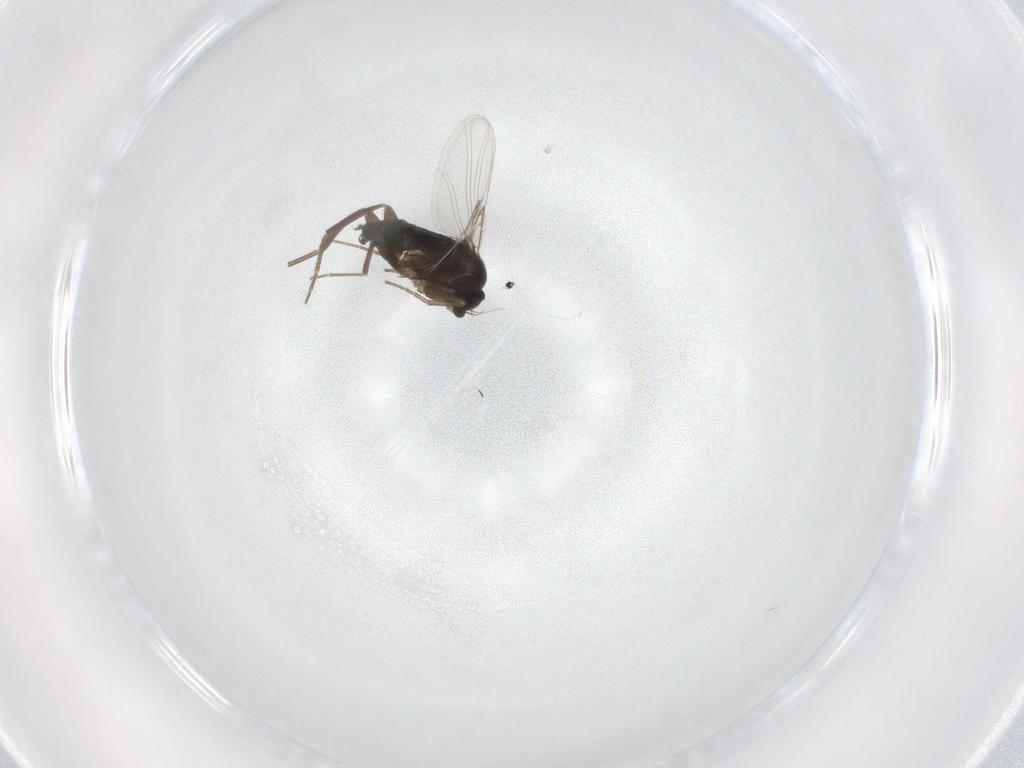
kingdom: Animalia
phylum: Arthropoda
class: Insecta
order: Diptera
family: Phoridae
